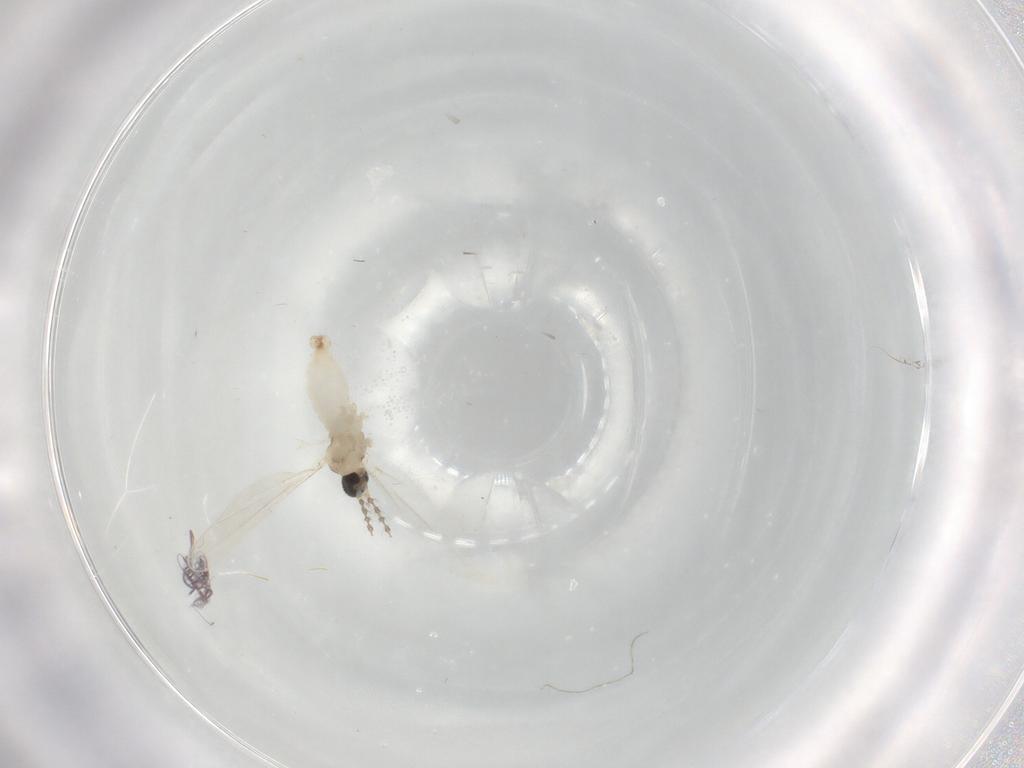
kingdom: Animalia
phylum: Arthropoda
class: Insecta
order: Diptera
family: Cecidomyiidae
